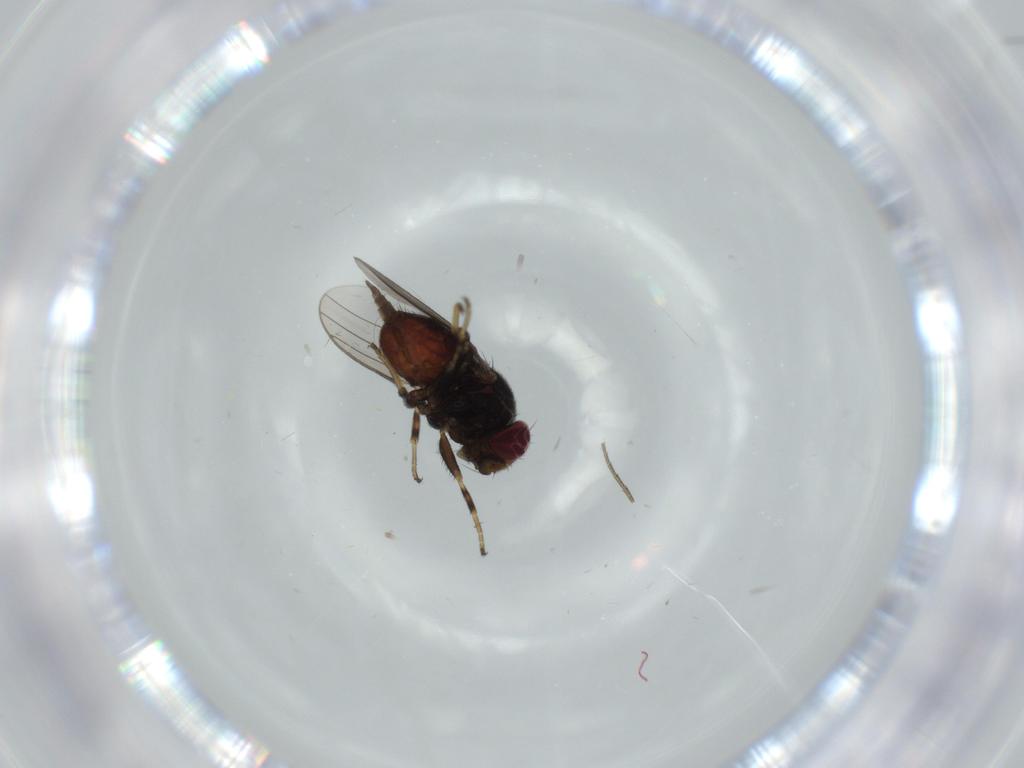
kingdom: Animalia
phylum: Arthropoda
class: Insecta
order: Diptera
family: Chloropidae
